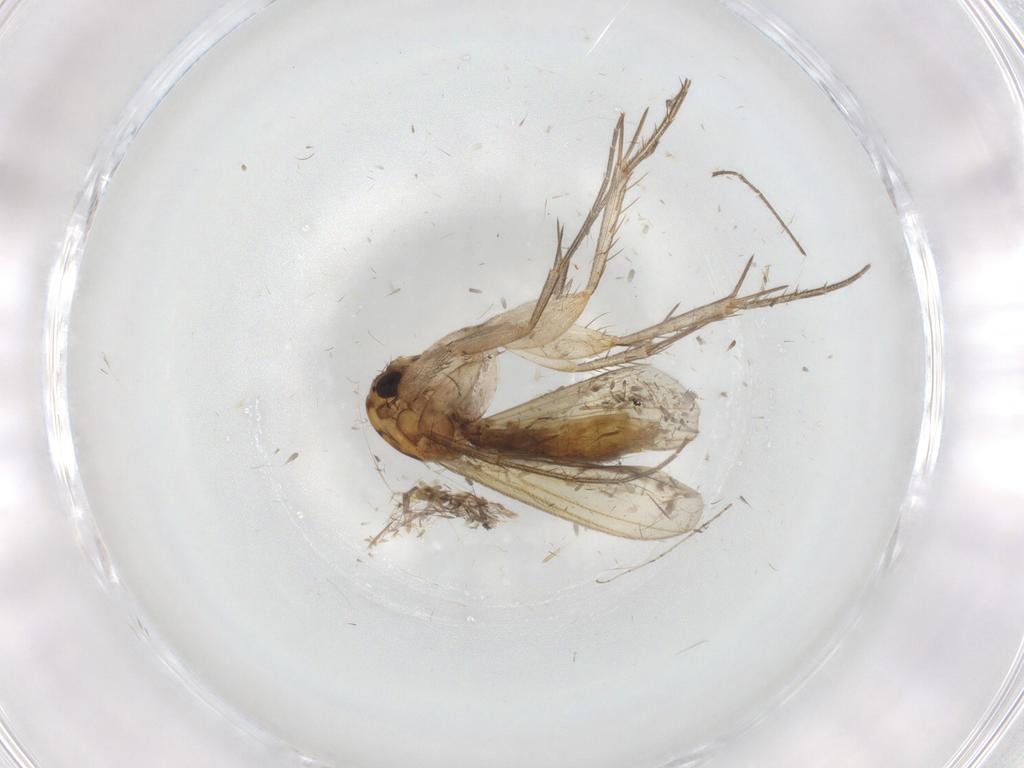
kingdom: Animalia
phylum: Arthropoda
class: Insecta
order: Diptera
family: Mycetophilidae
